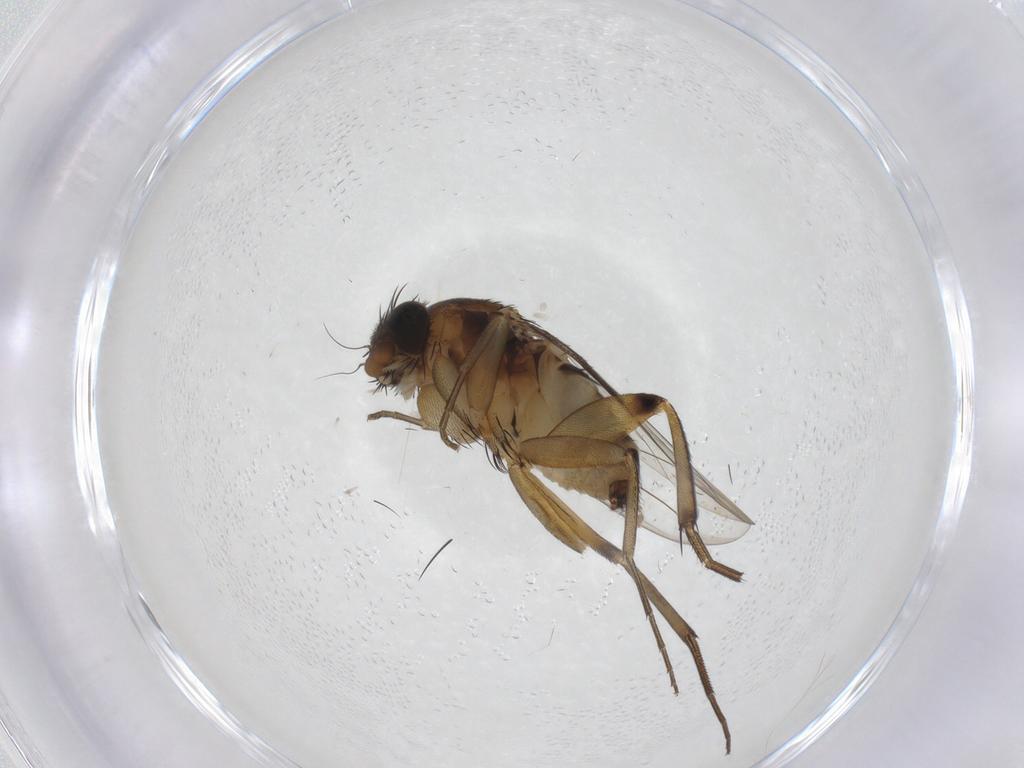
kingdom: Animalia
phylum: Arthropoda
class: Insecta
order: Diptera
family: Phoridae
